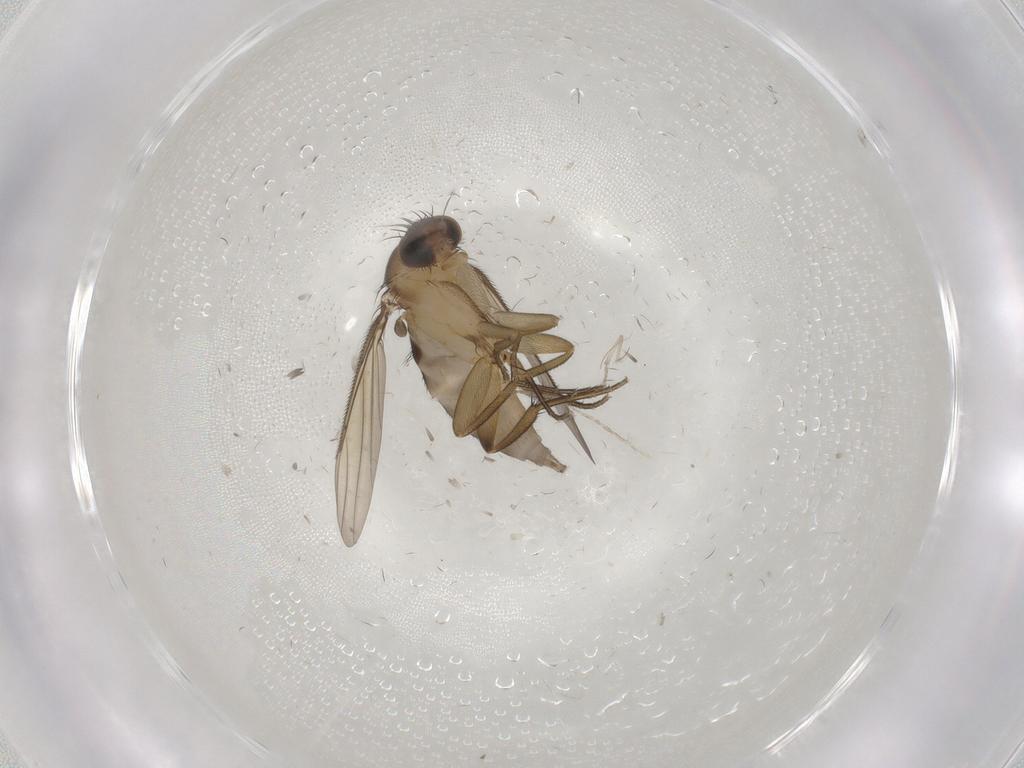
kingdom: Animalia
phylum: Arthropoda
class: Insecta
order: Diptera
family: Phoridae
